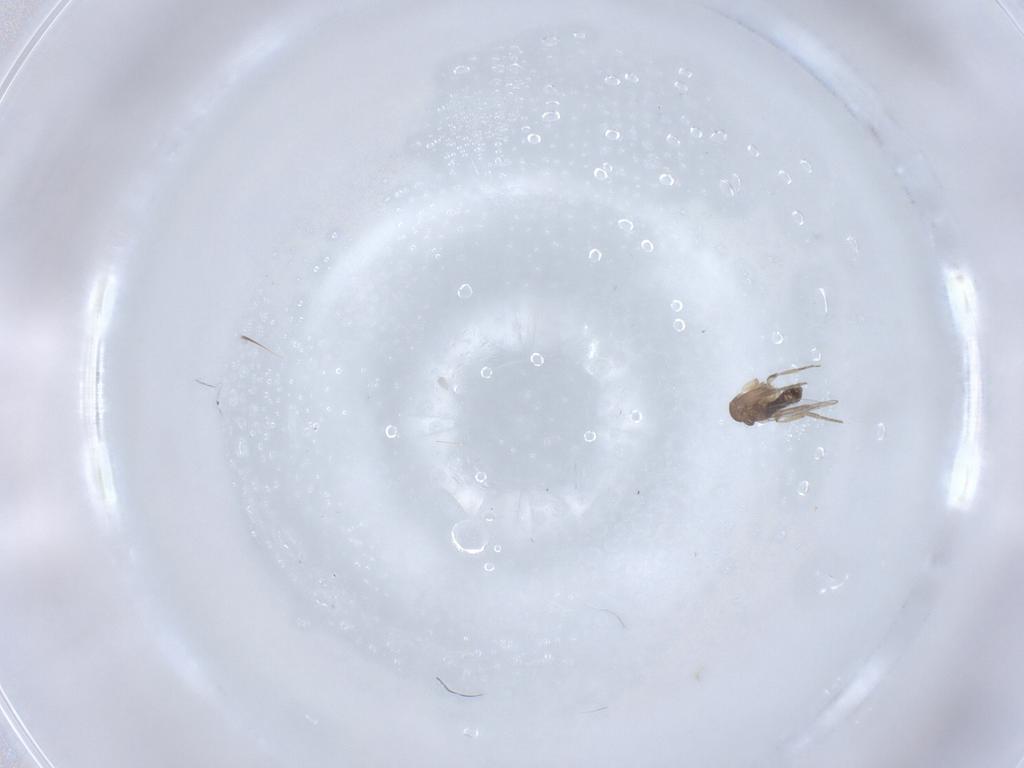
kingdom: Animalia
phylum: Arthropoda
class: Insecta
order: Diptera
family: Phoridae
